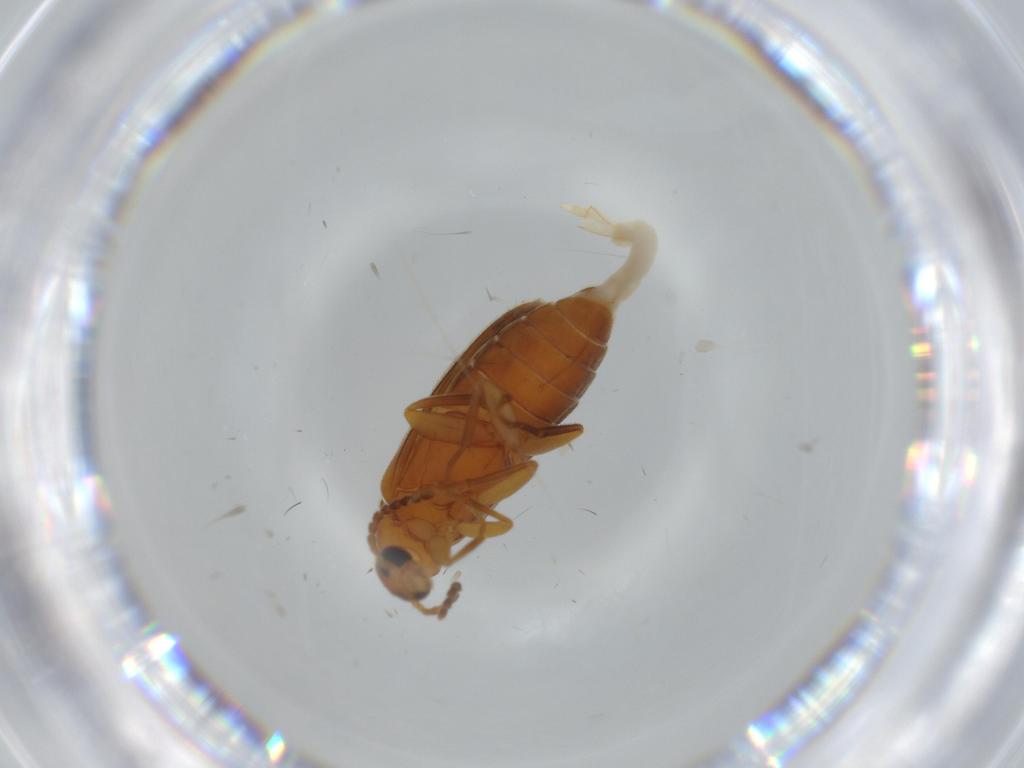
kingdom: Animalia
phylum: Arthropoda
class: Insecta
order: Coleoptera
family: Scraptiidae
